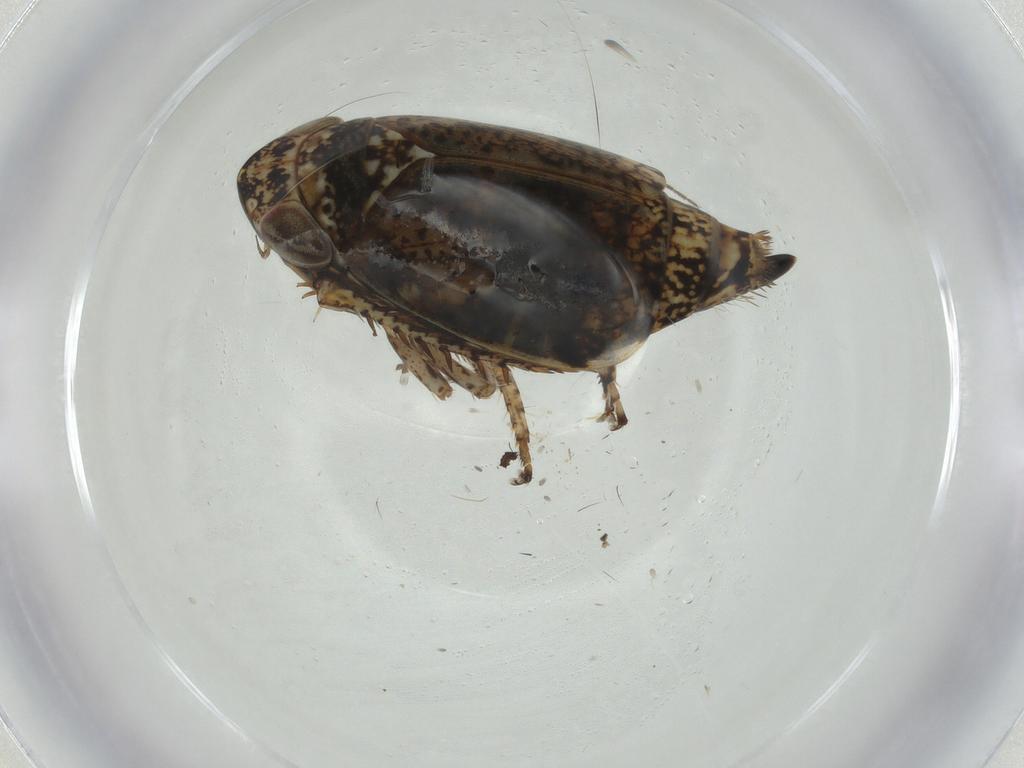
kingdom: Animalia
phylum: Arthropoda
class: Insecta
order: Hemiptera
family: Cicadellidae
